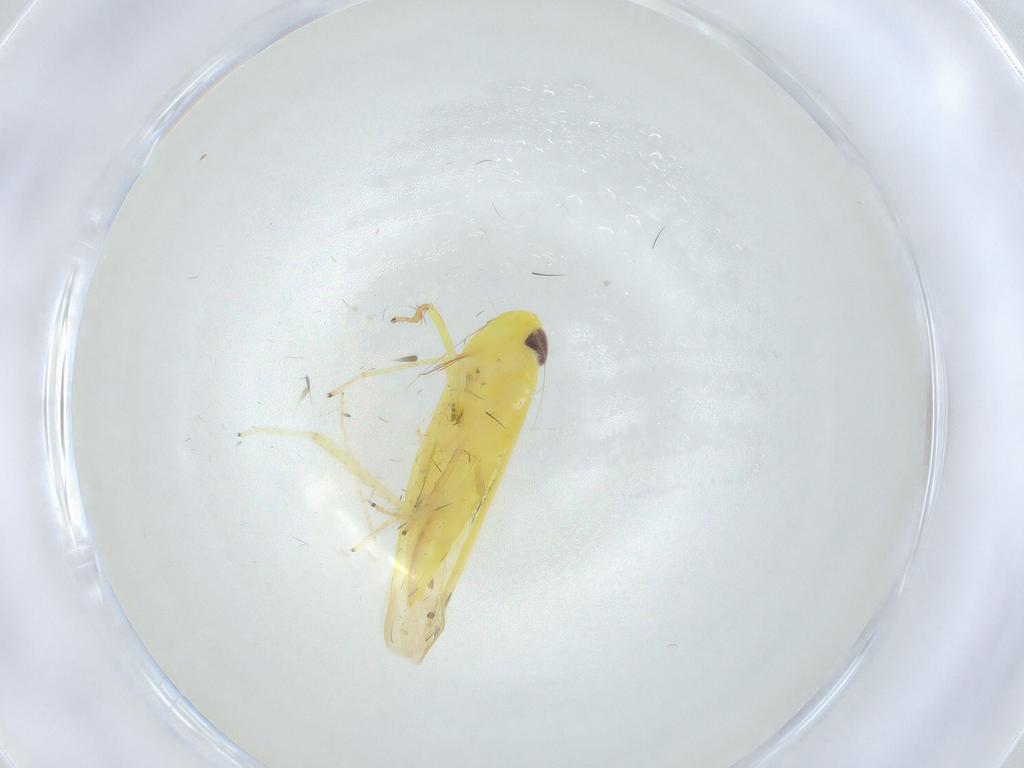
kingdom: Animalia
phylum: Arthropoda
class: Insecta
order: Hemiptera
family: Cicadellidae
